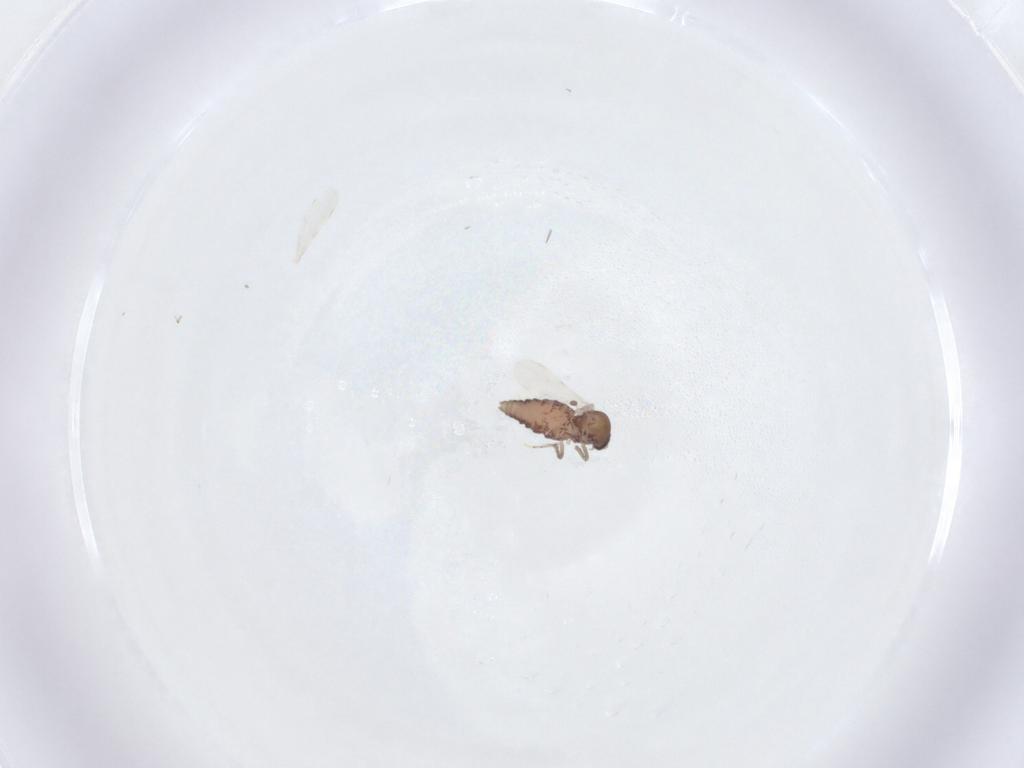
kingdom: Animalia
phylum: Arthropoda
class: Insecta
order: Diptera
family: Ceratopogonidae
